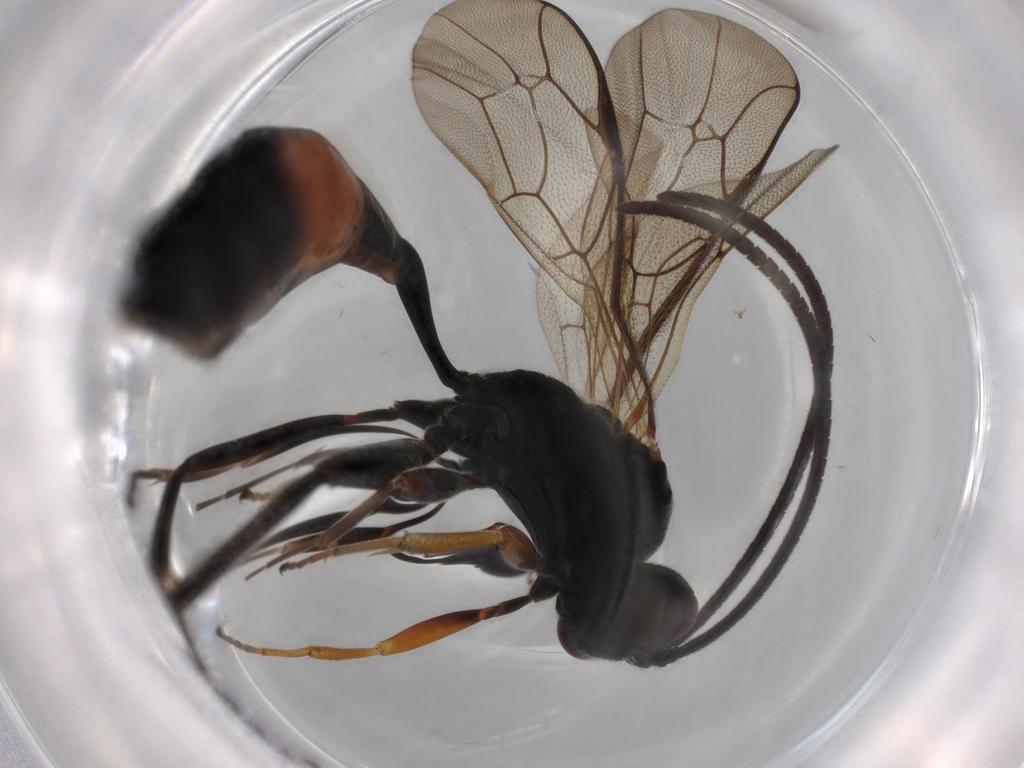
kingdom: Animalia
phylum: Arthropoda
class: Insecta
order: Hymenoptera
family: Ichneumonidae
